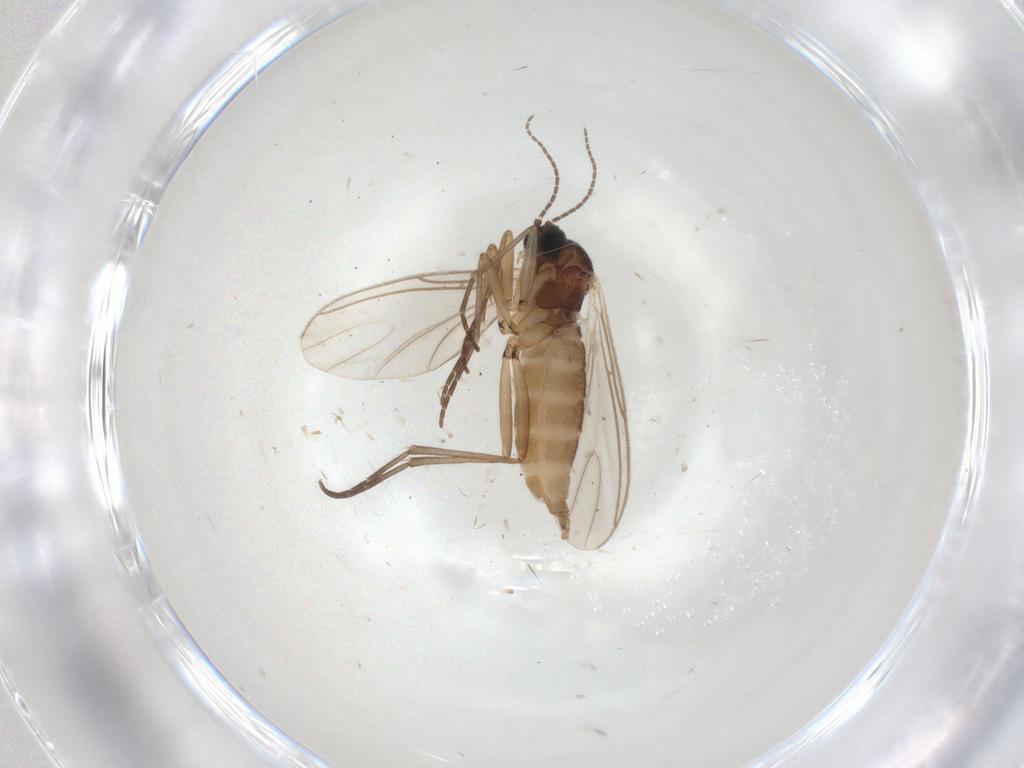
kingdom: Animalia
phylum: Arthropoda
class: Insecta
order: Diptera
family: Sciaridae
